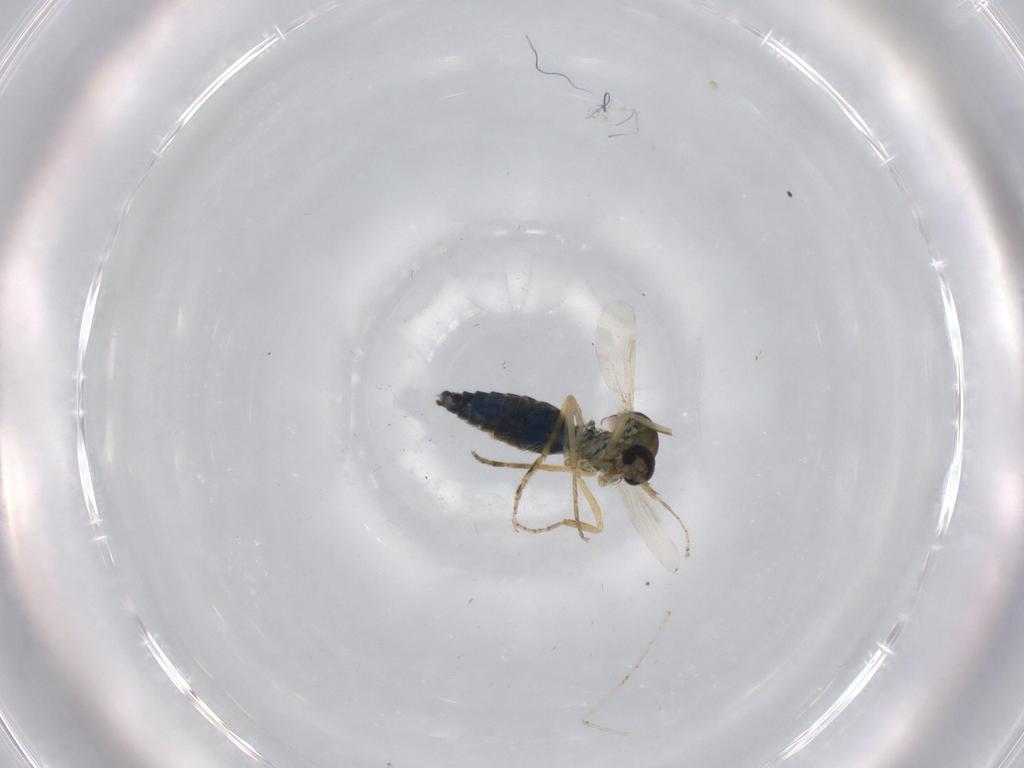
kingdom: Animalia
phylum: Arthropoda
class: Insecta
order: Diptera
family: Ceratopogonidae
